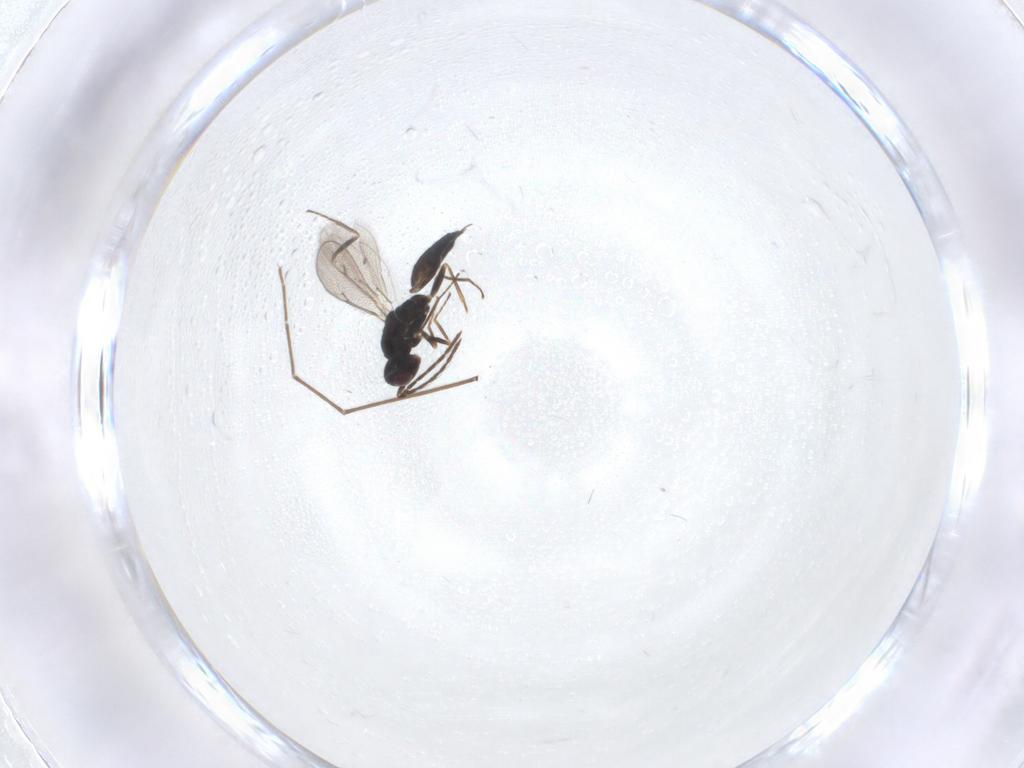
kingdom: Animalia
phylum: Arthropoda
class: Insecta
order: Hymenoptera
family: Eulophidae
